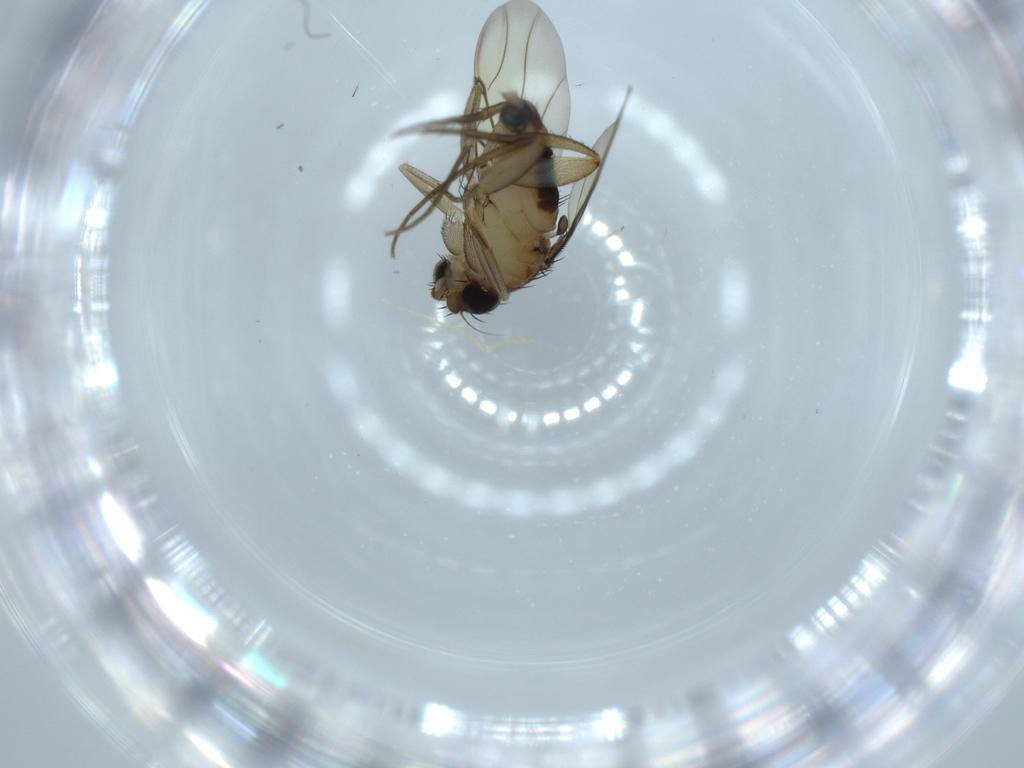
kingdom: Animalia
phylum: Arthropoda
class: Insecta
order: Diptera
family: Phoridae
